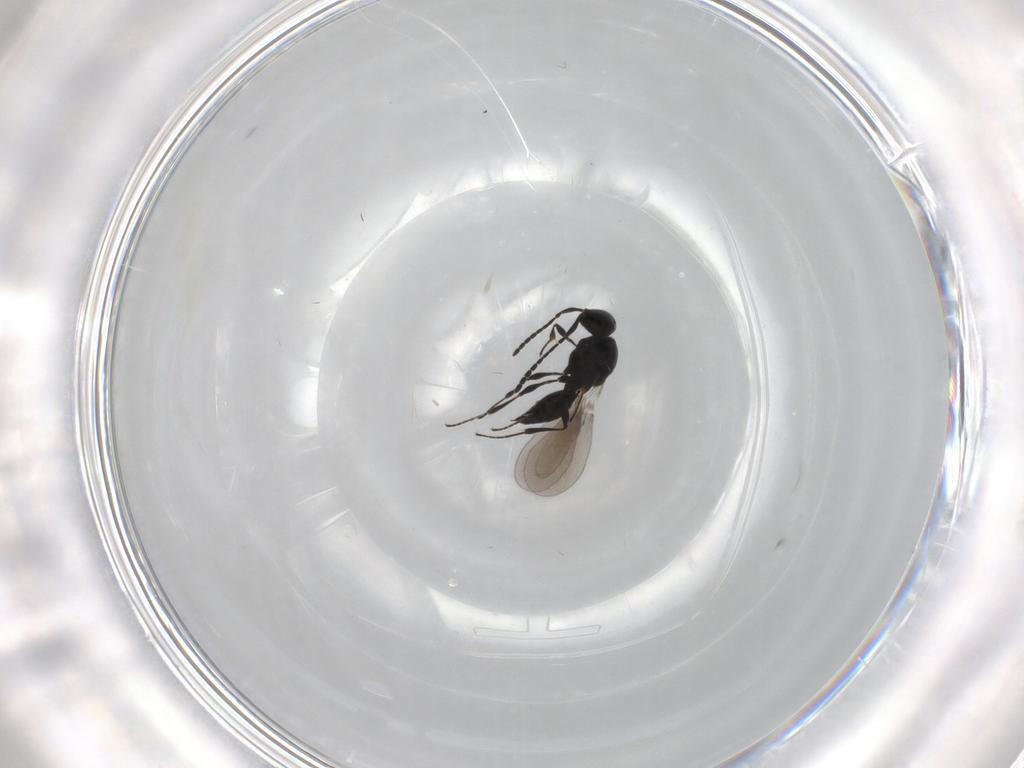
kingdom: Animalia
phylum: Arthropoda
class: Insecta
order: Hymenoptera
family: Platygastridae
